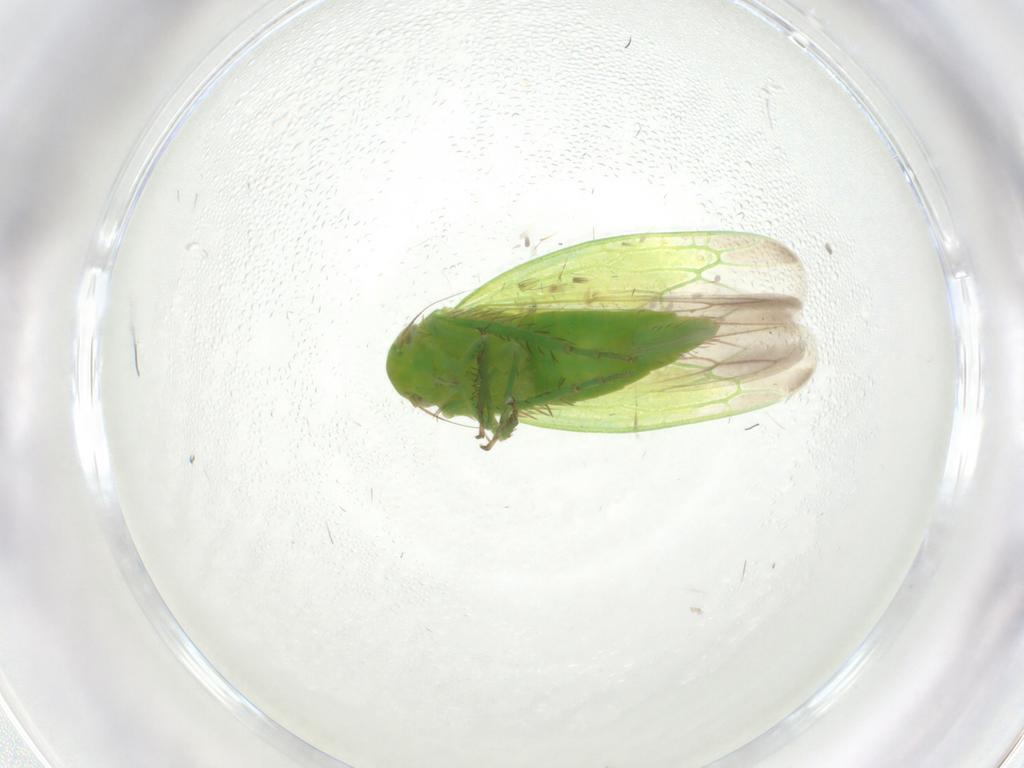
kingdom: Animalia
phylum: Arthropoda
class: Insecta
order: Hemiptera
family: Cicadellidae
